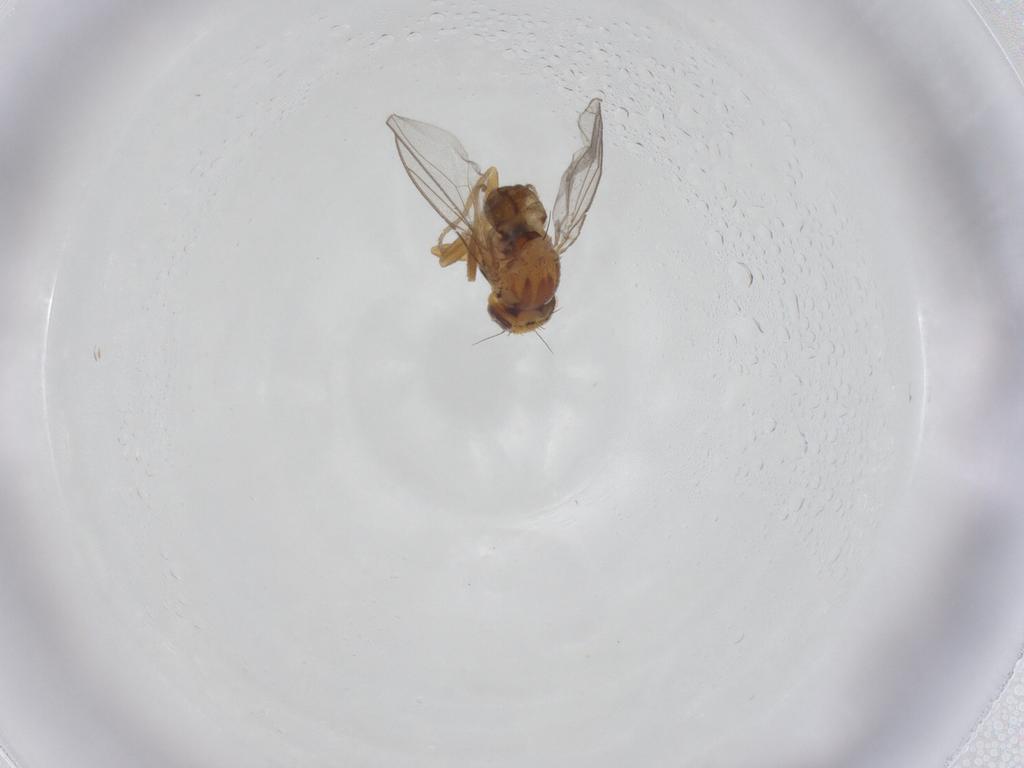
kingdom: Animalia
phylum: Arthropoda
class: Insecta
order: Diptera
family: Chloropidae
